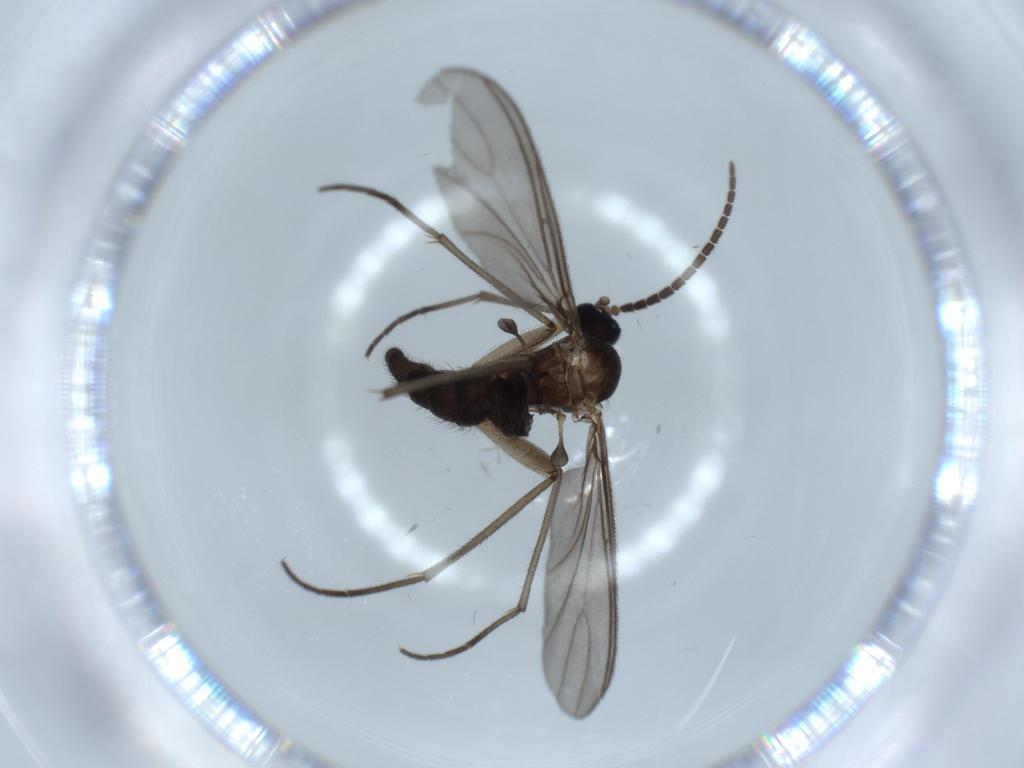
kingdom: Animalia
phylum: Arthropoda
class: Insecta
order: Diptera
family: Sciaridae
